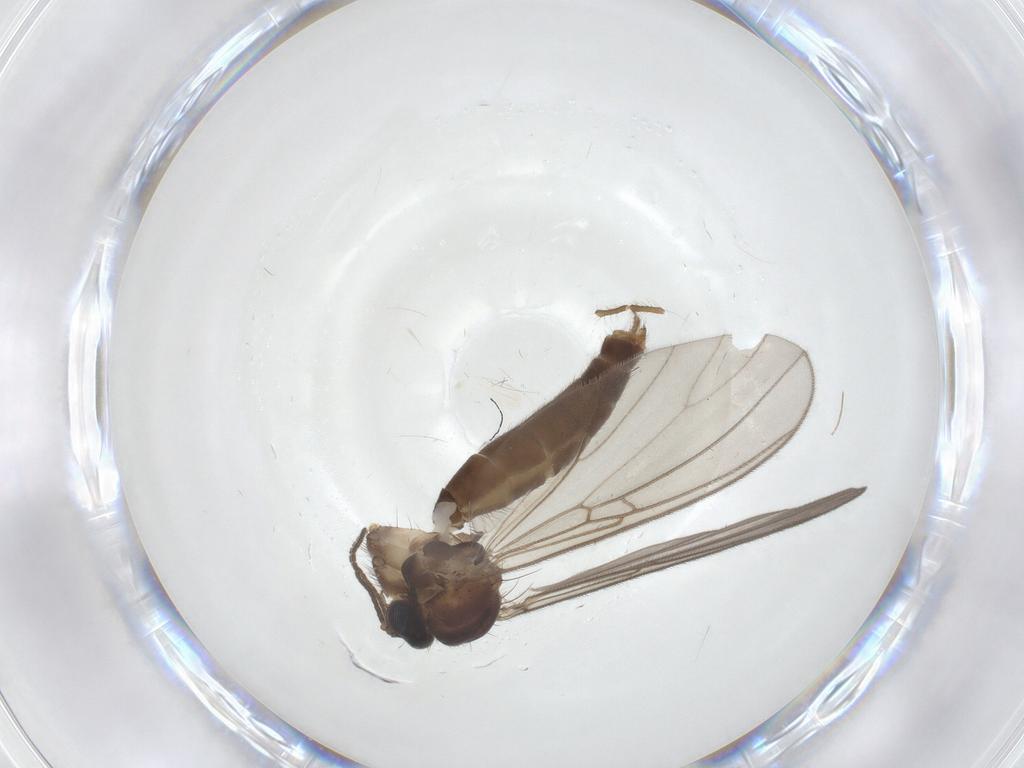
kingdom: Animalia
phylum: Arthropoda
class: Insecta
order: Diptera
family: Mycetophilidae
